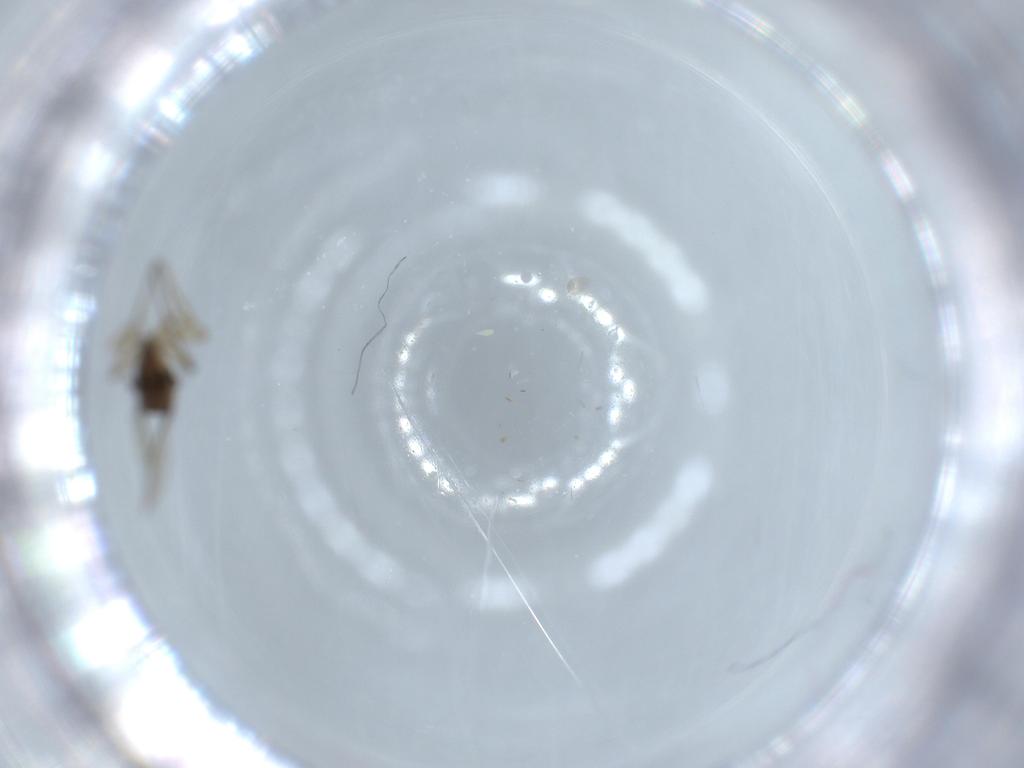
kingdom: Animalia
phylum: Arthropoda
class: Insecta
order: Diptera
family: Phoridae
